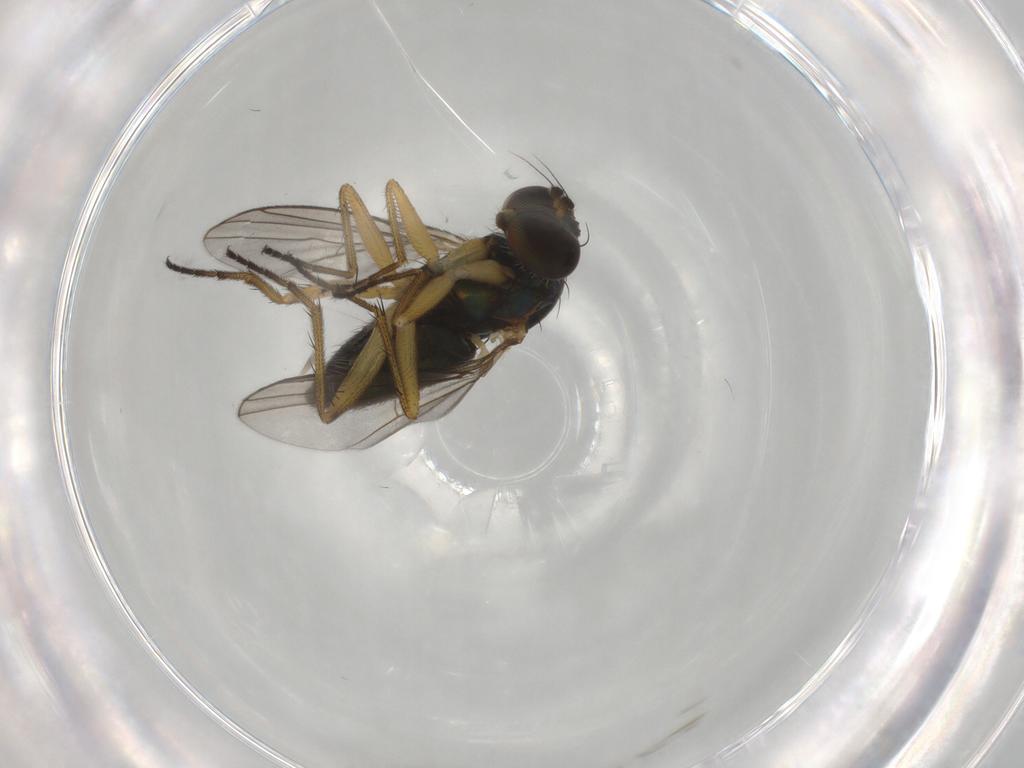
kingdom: Animalia
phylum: Arthropoda
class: Insecta
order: Diptera
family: Dolichopodidae
